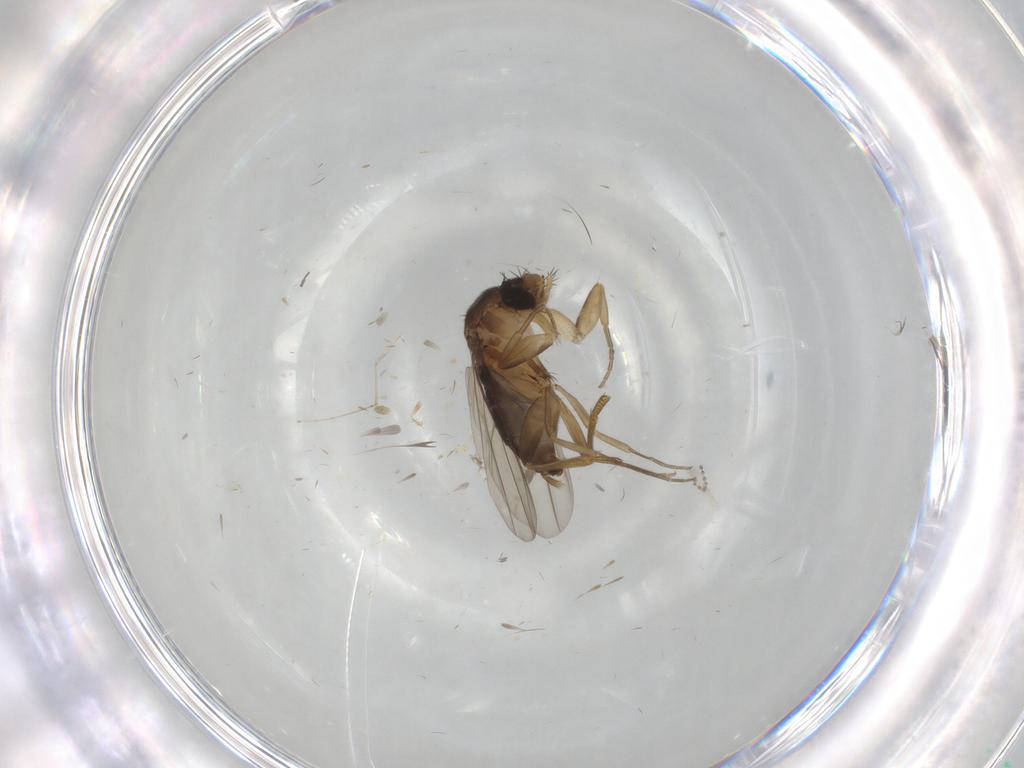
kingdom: Animalia
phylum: Arthropoda
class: Insecta
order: Diptera
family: Phoridae
